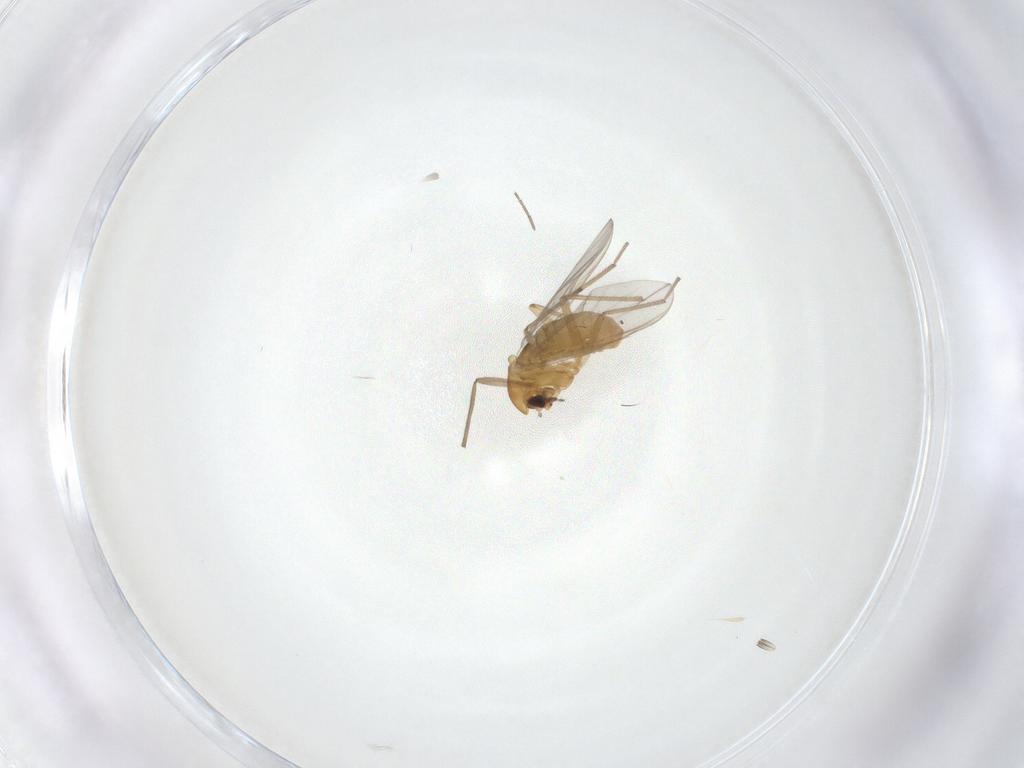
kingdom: Animalia
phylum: Arthropoda
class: Insecta
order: Diptera
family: Chironomidae
